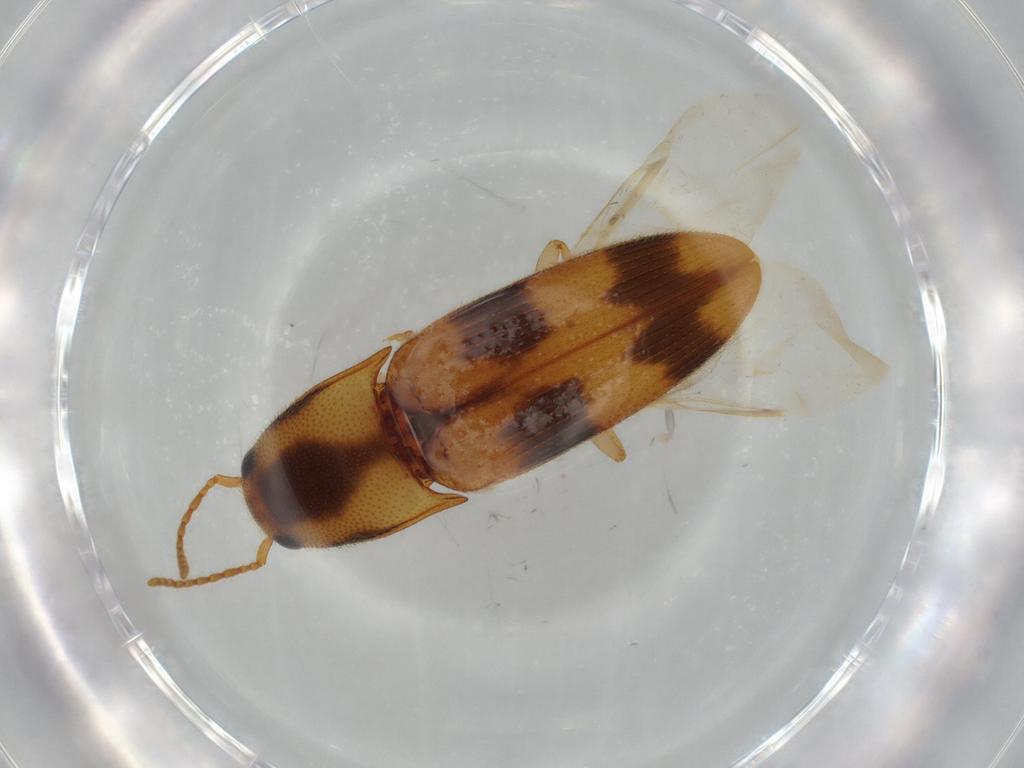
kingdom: Animalia
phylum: Arthropoda
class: Insecta
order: Coleoptera
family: Elateridae
